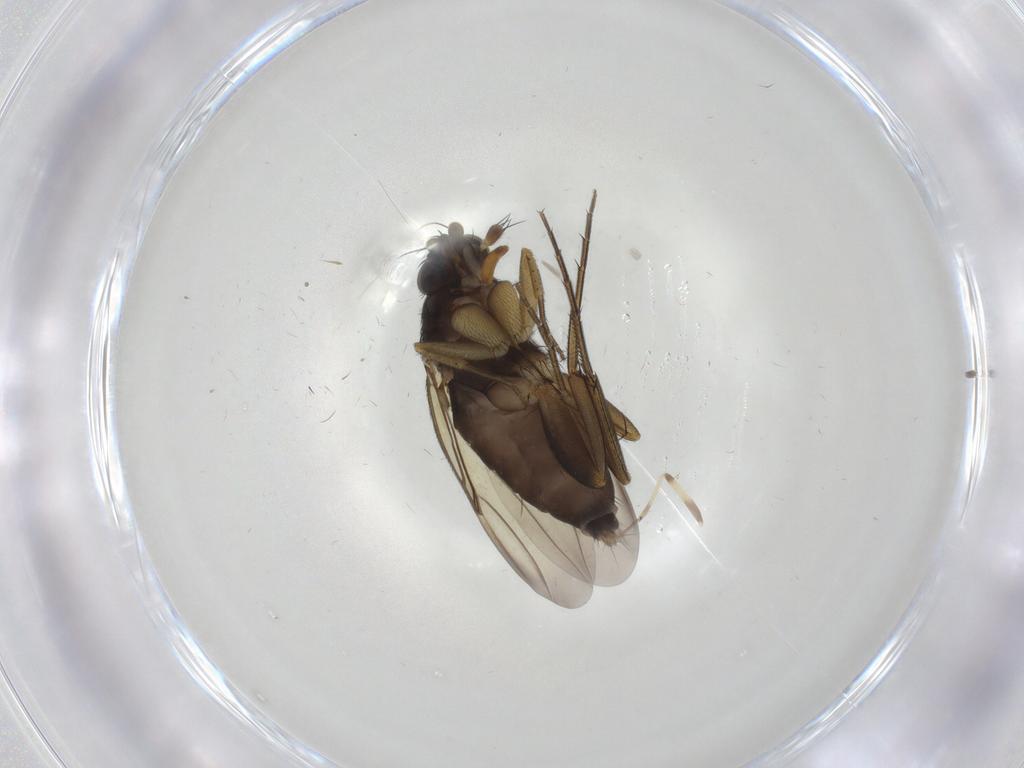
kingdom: Animalia
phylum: Arthropoda
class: Insecta
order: Diptera
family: Phoridae
